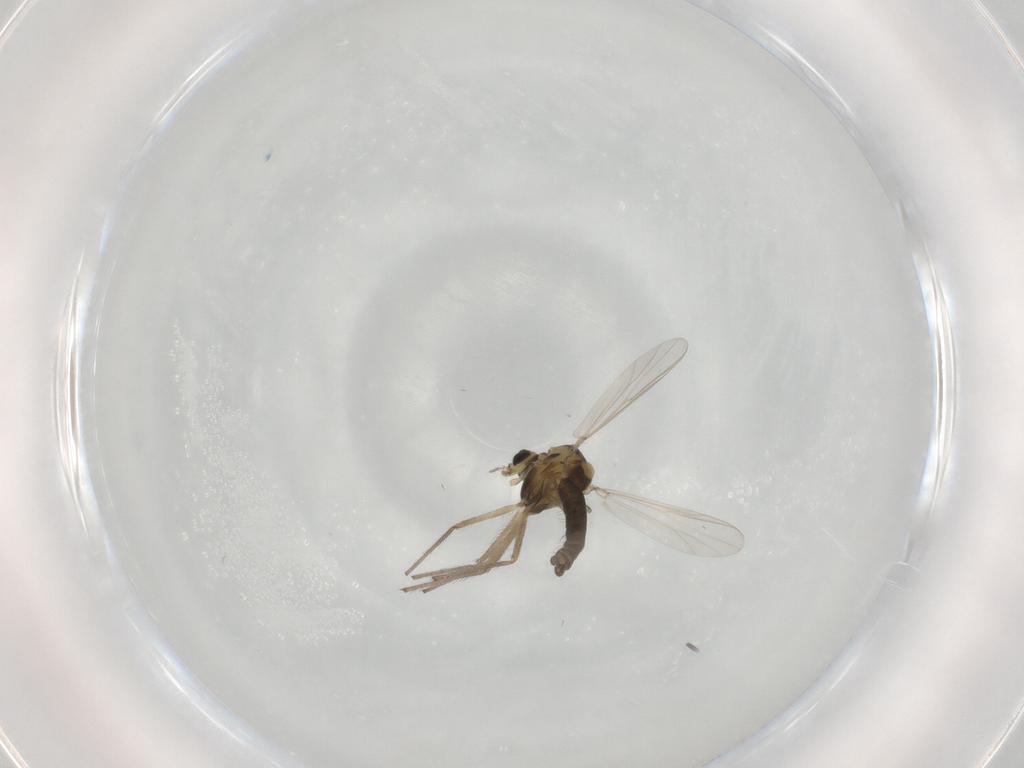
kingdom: Animalia
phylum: Arthropoda
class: Insecta
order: Diptera
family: Chironomidae
